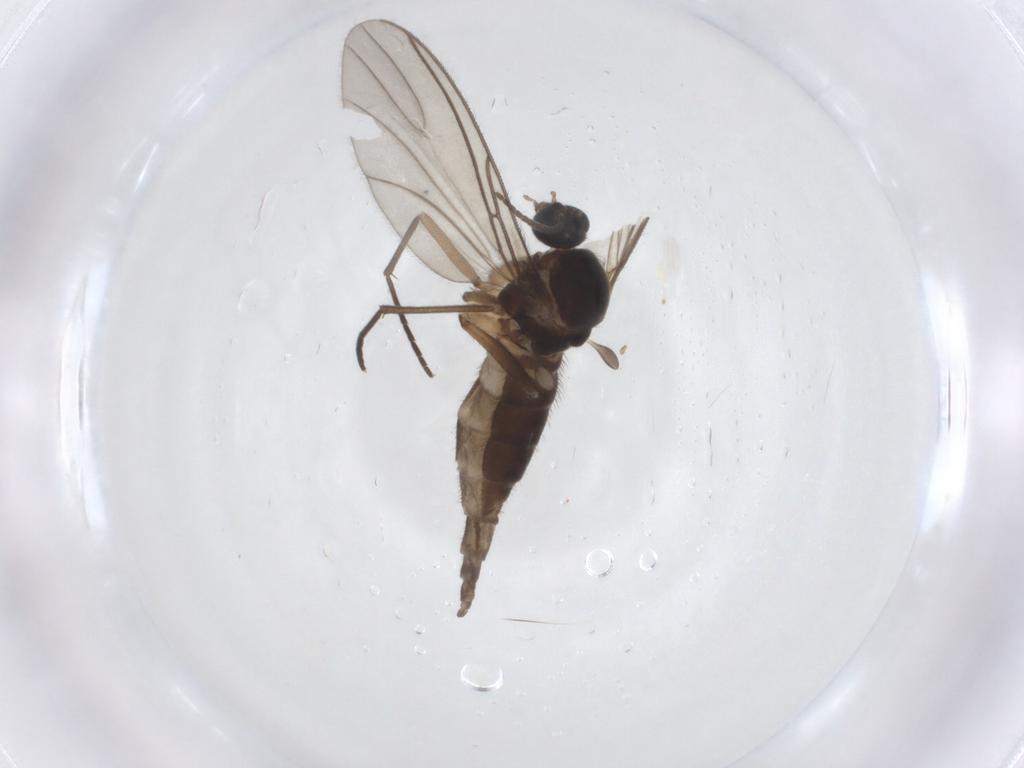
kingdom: Animalia
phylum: Arthropoda
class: Insecta
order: Diptera
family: Sciaridae
